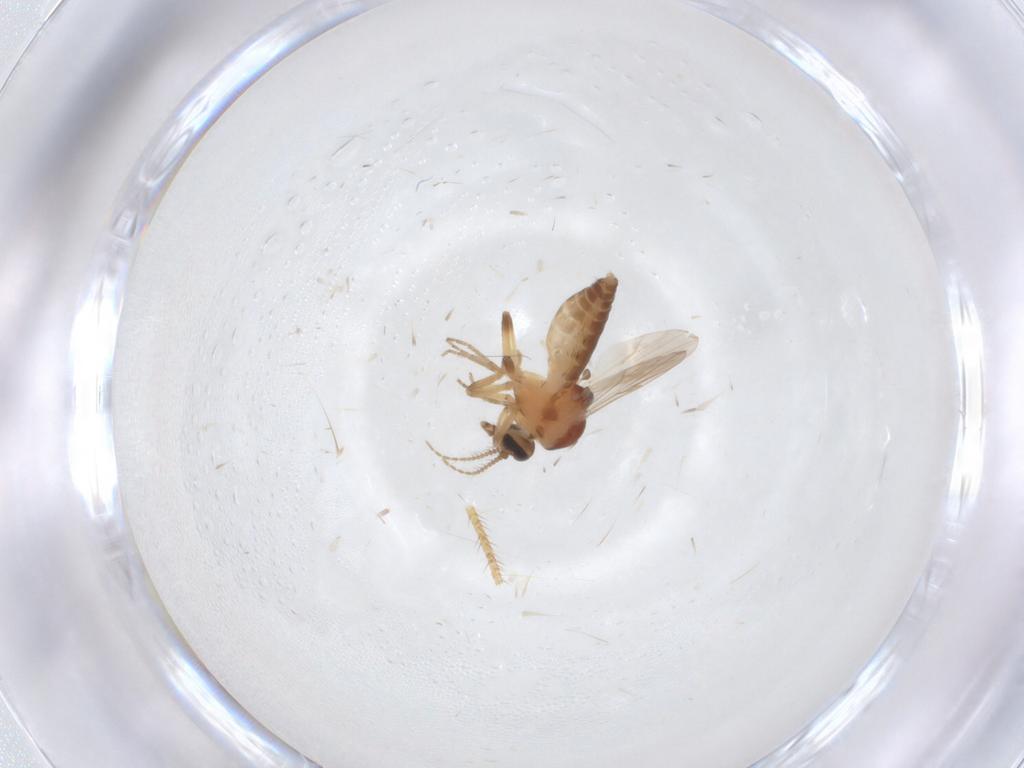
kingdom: Animalia
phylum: Arthropoda
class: Insecta
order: Diptera
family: Ceratopogonidae
